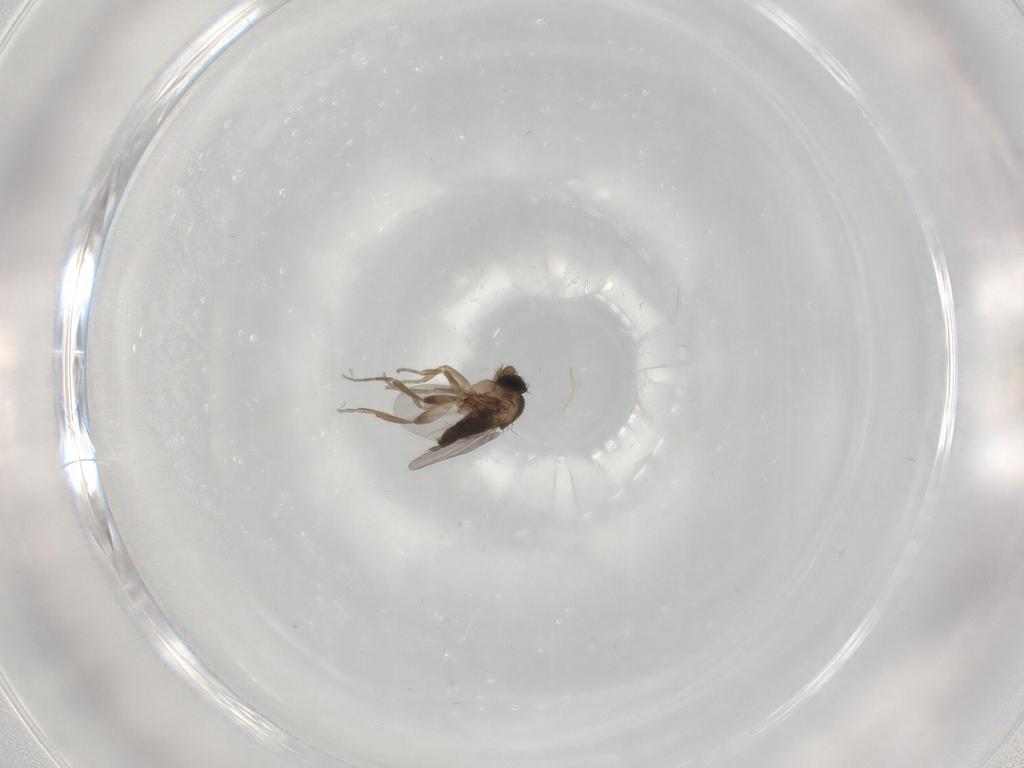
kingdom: Animalia
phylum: Arthropoda
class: Insecta
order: Diptera
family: Phoridae
